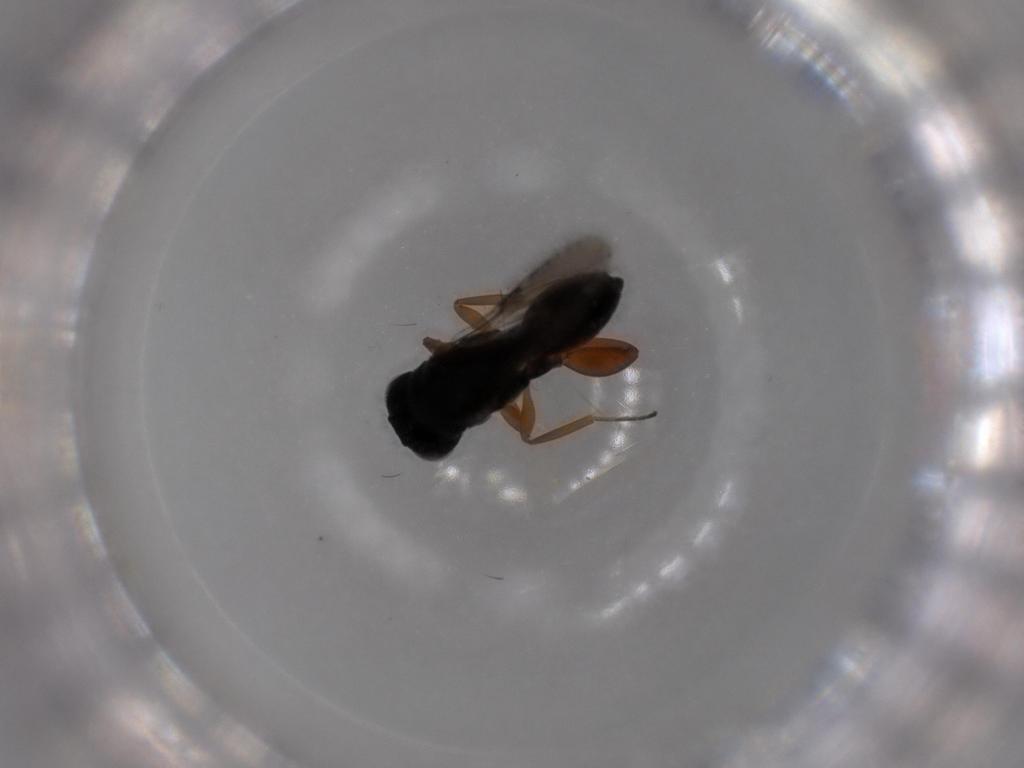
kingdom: Animalia
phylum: Arthropoda
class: Insecta
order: Hymenoptera
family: Chalcididae
